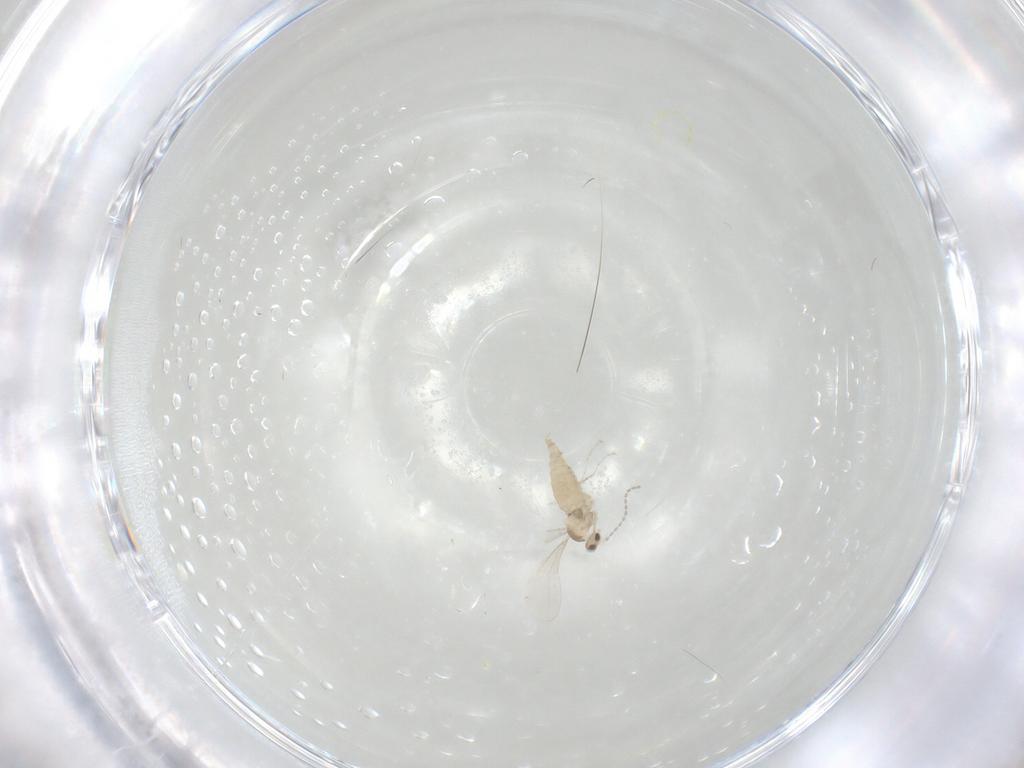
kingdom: Animalia
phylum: Arthropoda
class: Insecta
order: Diptera
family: Cecidomyiidae
